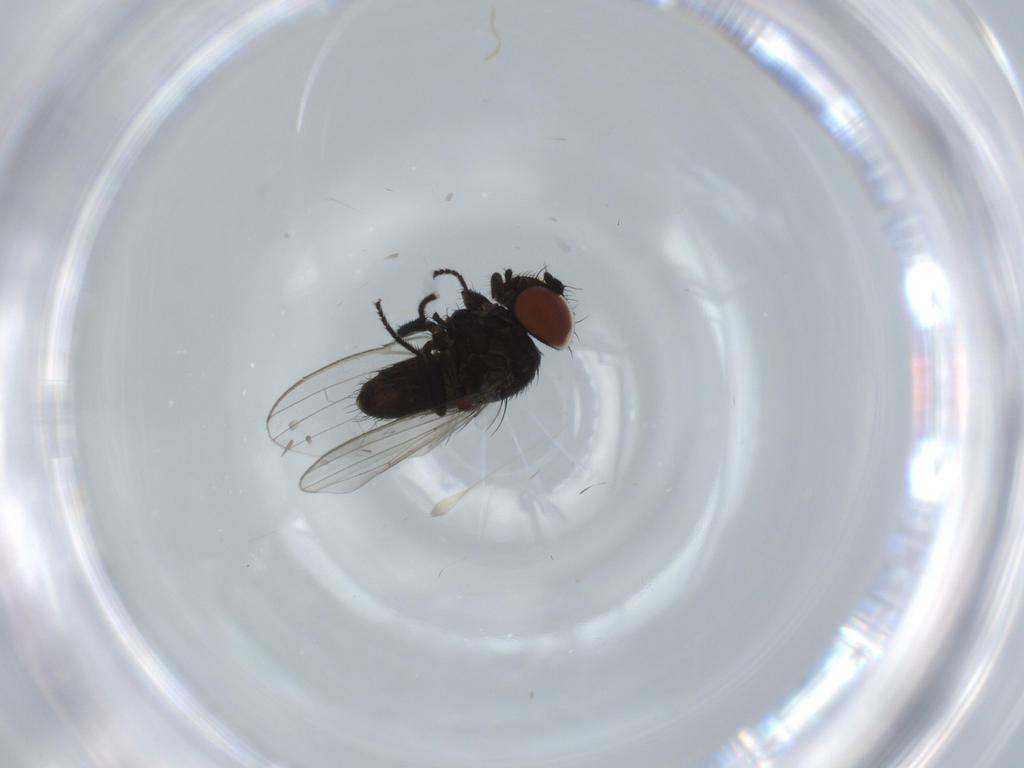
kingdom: Animalia
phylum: Arthropoda
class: Insecta
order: Diptera
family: Milichiidae
